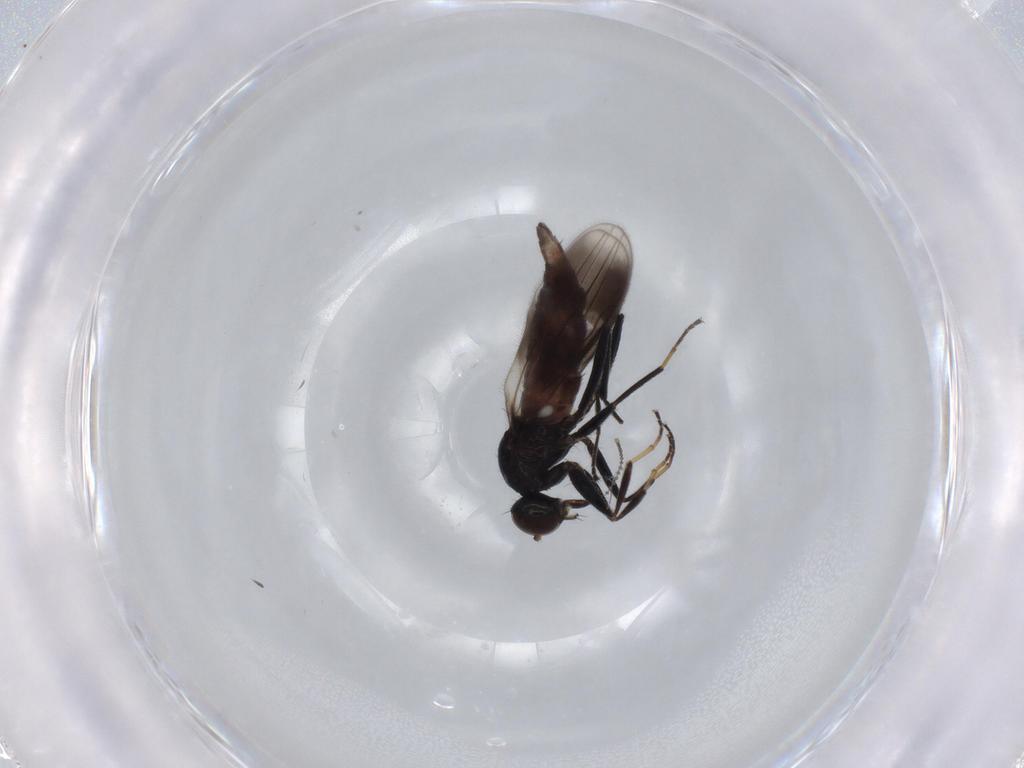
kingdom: Animalia
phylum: Arthropoda
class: Insecta
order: Diptera
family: Hybotidae
